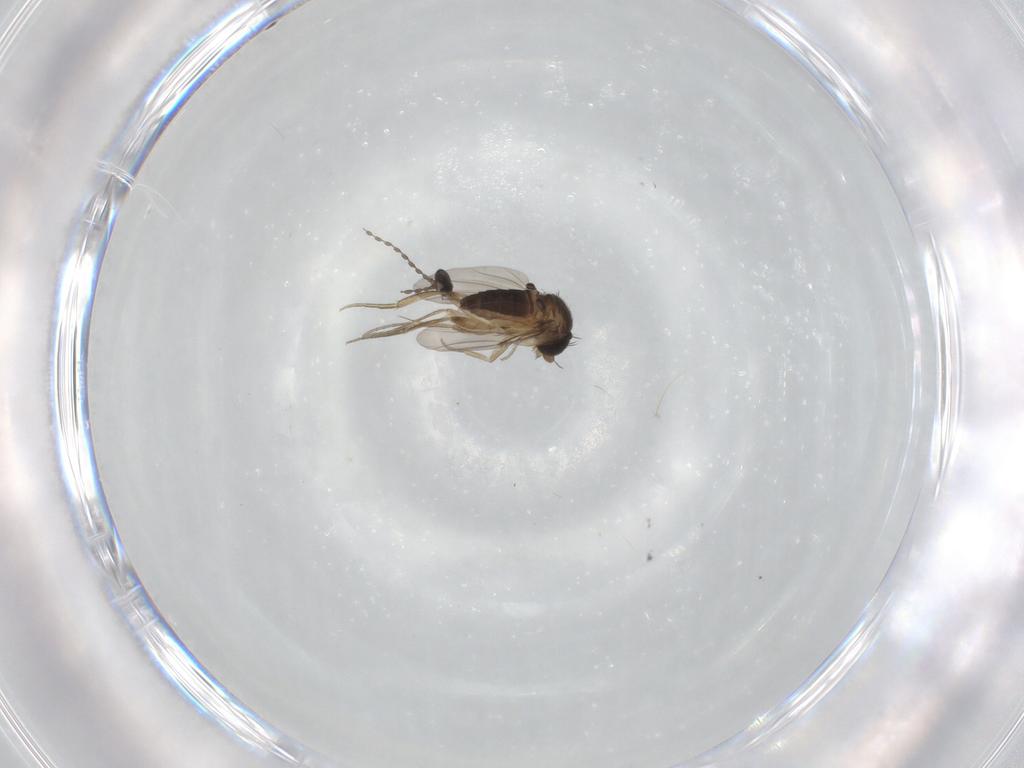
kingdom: Animalia
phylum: Arthropoda
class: Insecta
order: Diptera
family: Phoridae
